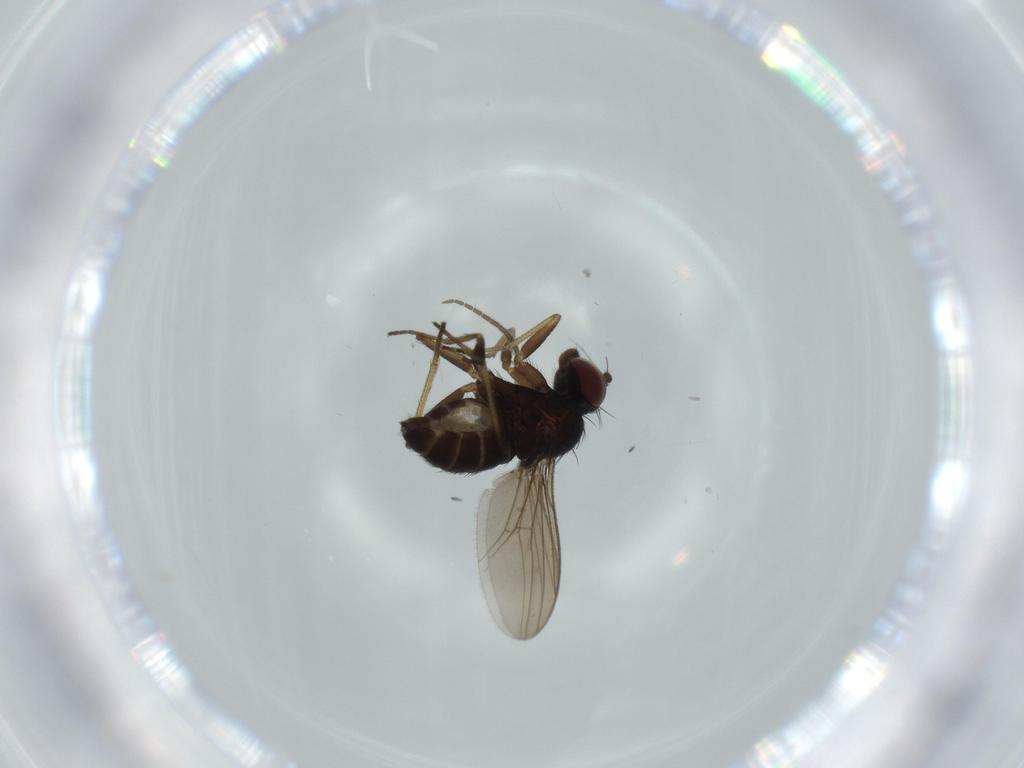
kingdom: Animalia
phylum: Arthropoda
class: Insecta
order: Diptera
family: Dolichopodidae
